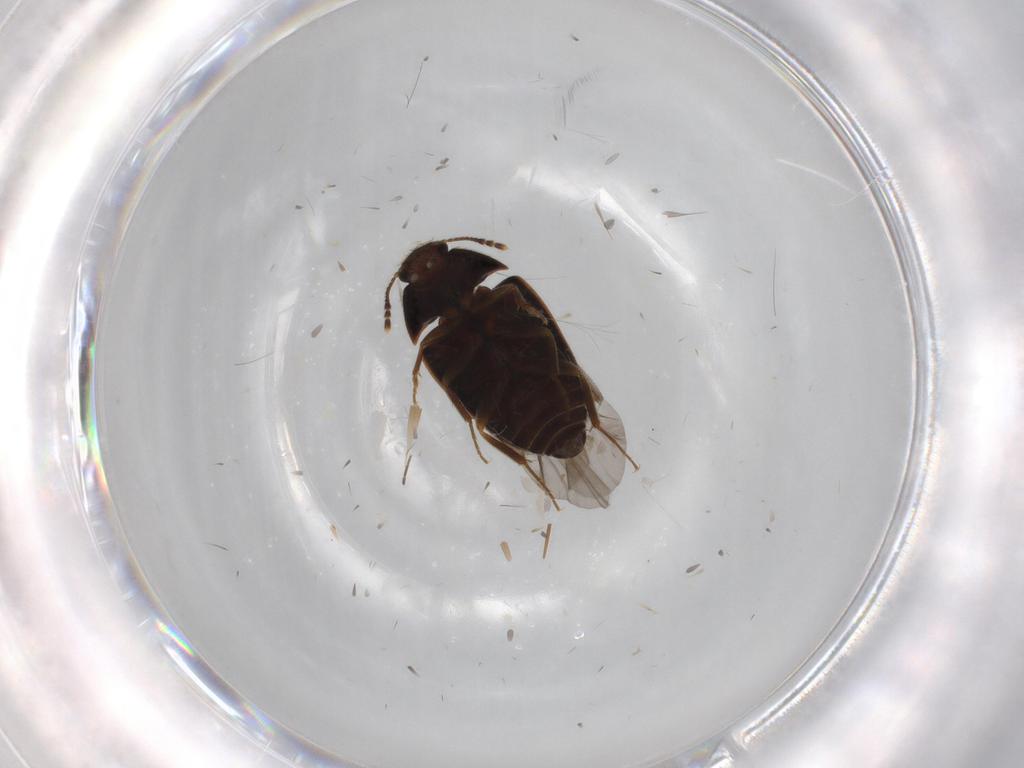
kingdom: Animalia
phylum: Arthropoda
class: Insecta
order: Coleoptera
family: Mycetophagidae
